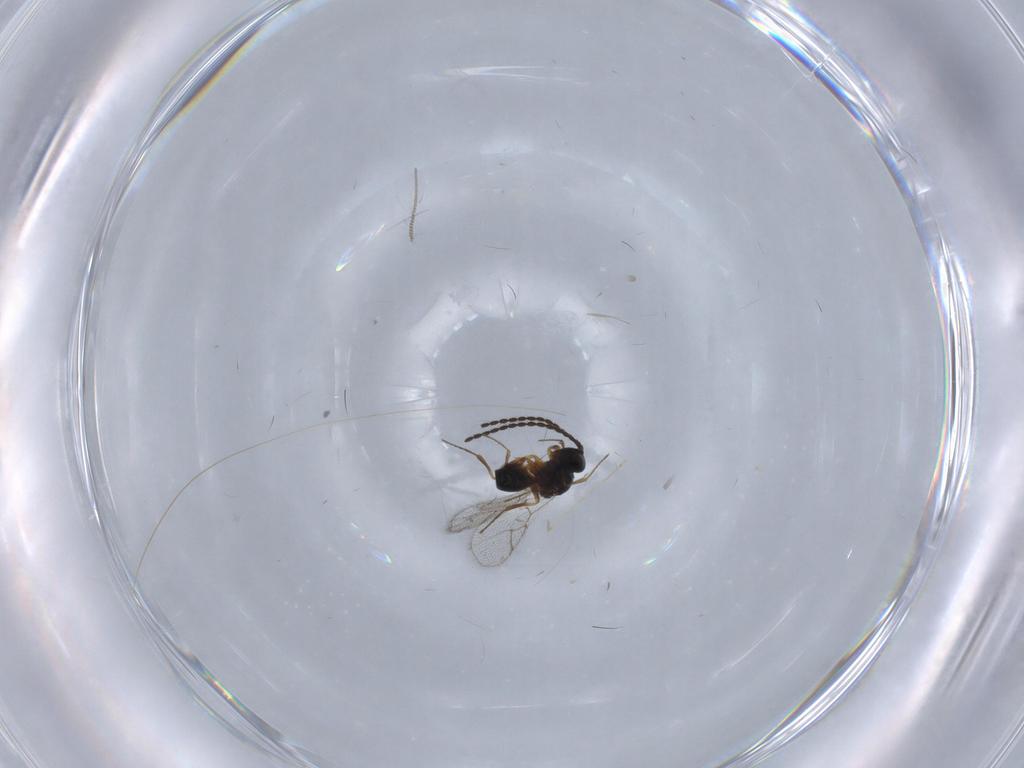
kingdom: Animalia
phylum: Arthropoda
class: Insecta
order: Hymenoptera
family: Figitidae
